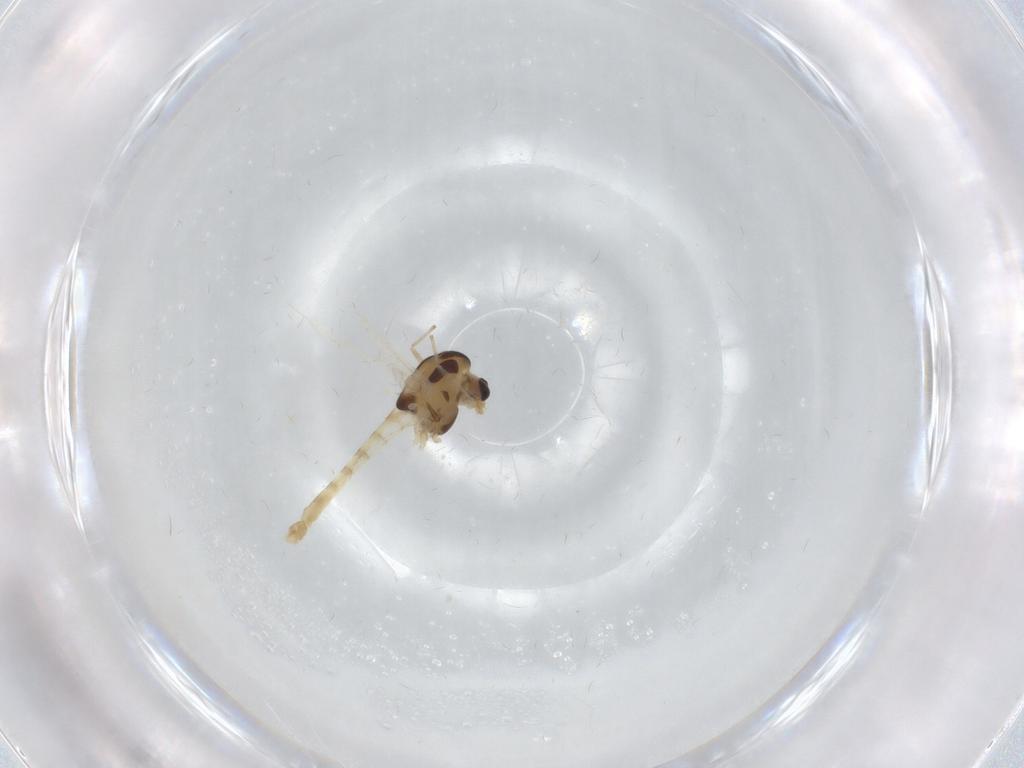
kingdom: Animalia
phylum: Arthropoda
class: Insecta
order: Diptera
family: Chironomidae
